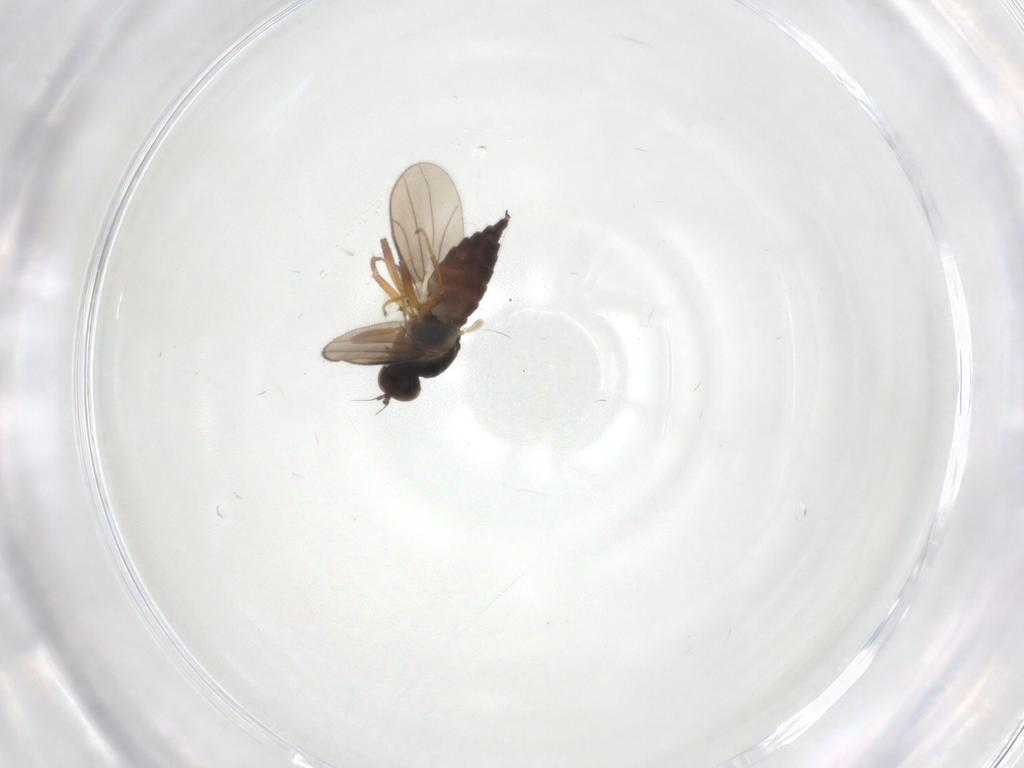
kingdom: Animalia
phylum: Arthropoda
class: Insecta
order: Diptera
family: Hybotidae
